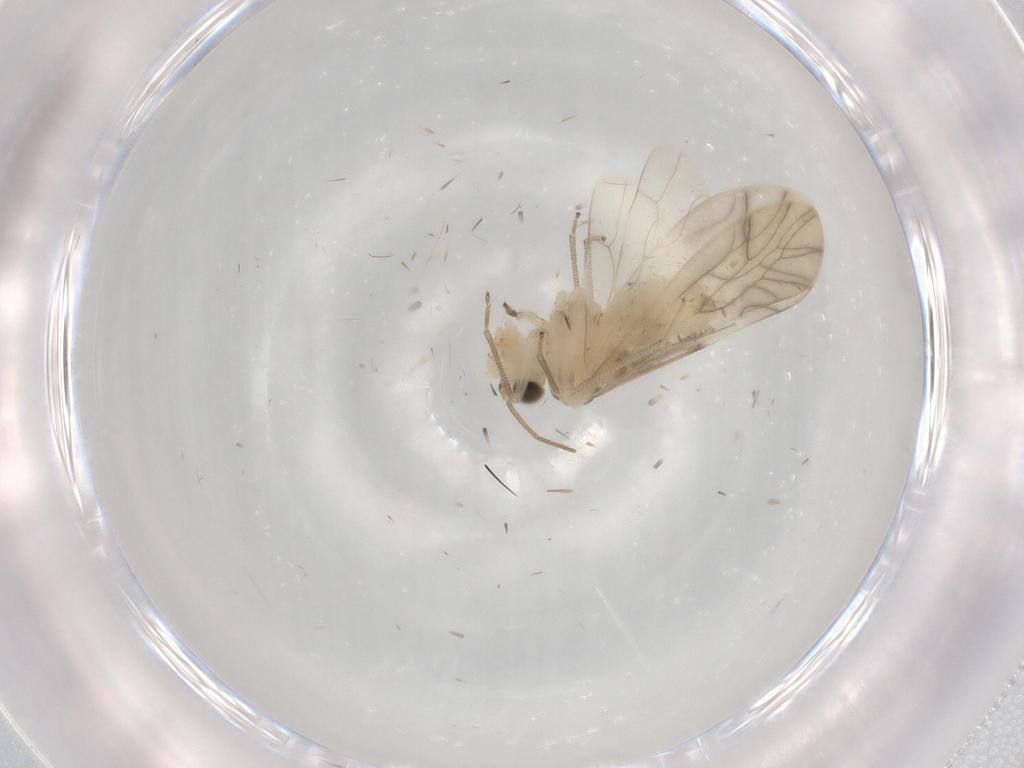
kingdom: Animalia
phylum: Arthropoda
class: Insecta
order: Psocodea
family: Caeciliusidae
